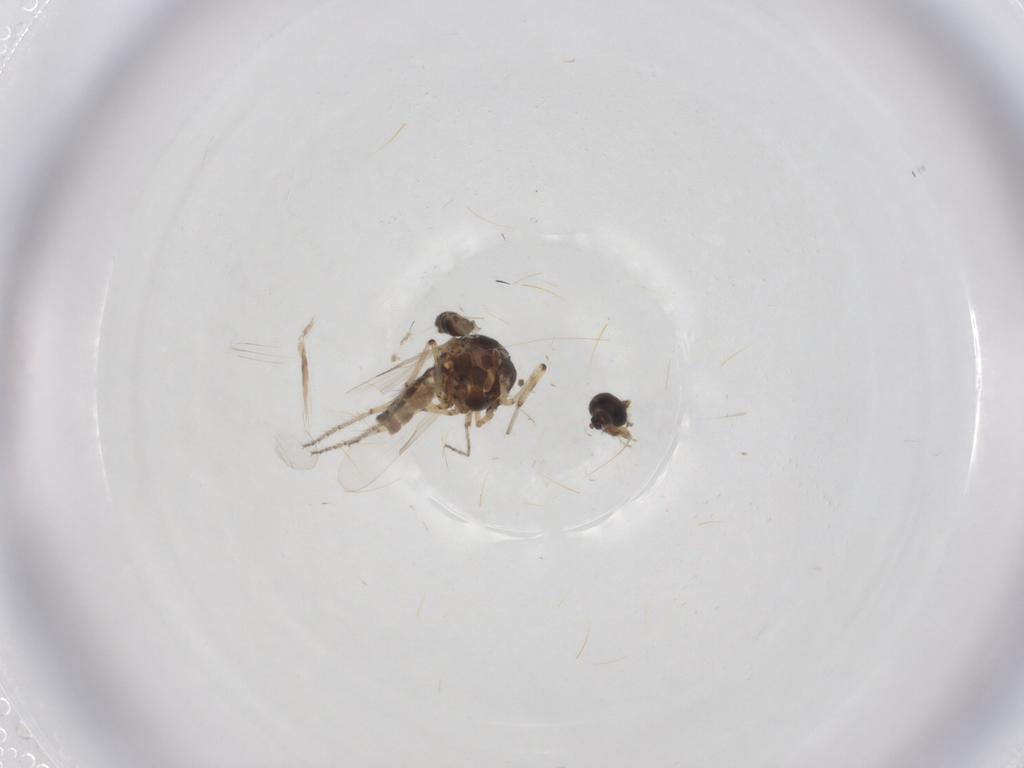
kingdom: Animalia
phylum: Arthropoda
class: Insecta
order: Diptera
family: Ceratopogonidae
